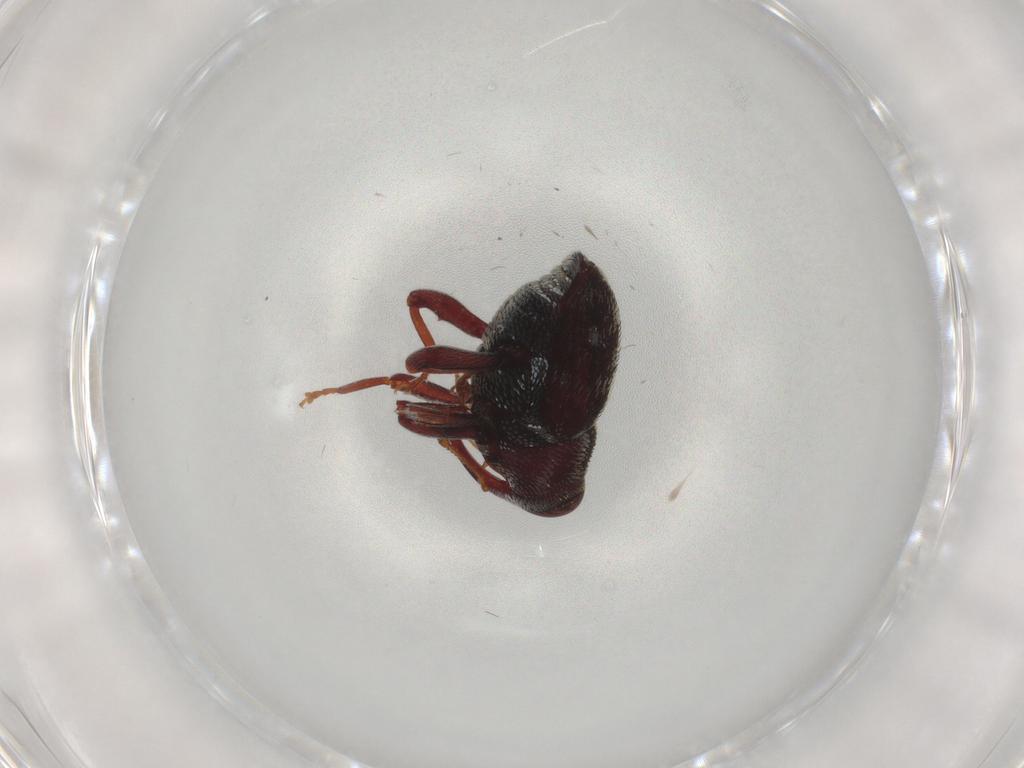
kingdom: Animalia
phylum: Arthropoda
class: Insecta
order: Coleoptera
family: Curculionidae
